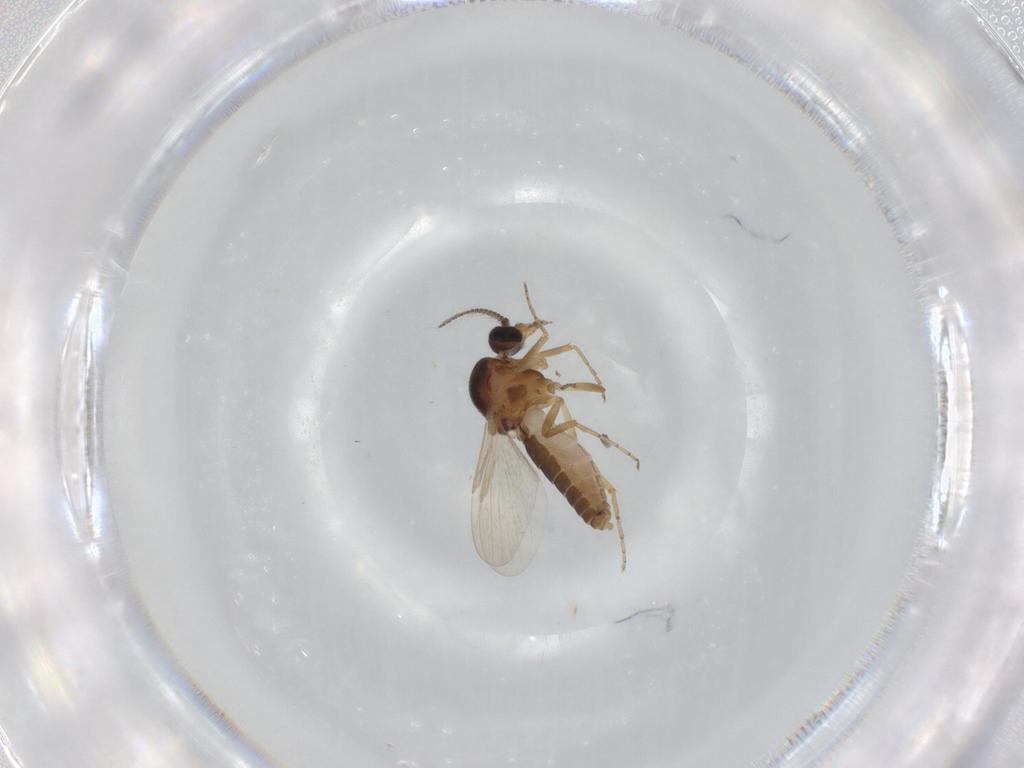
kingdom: Animalia
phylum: Arthropoda
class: Insecta
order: Diptera
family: Ceratopogonidae
